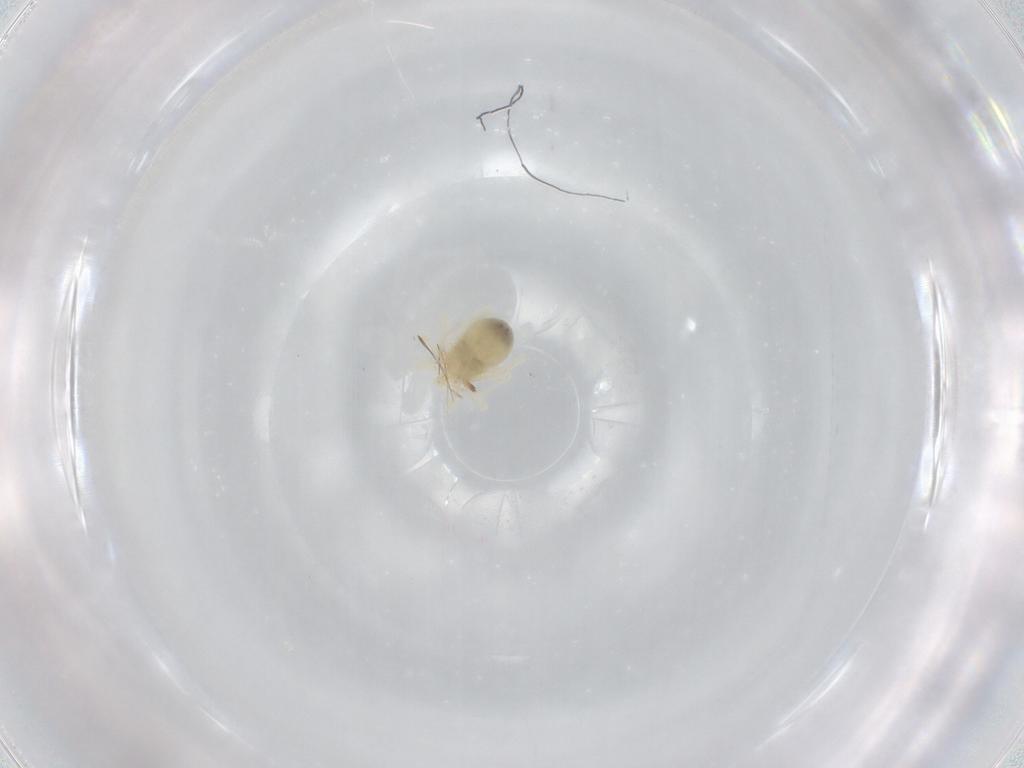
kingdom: Animalia
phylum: Arthropoda
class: Arachnida
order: Trombidiformes
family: Anystidae
